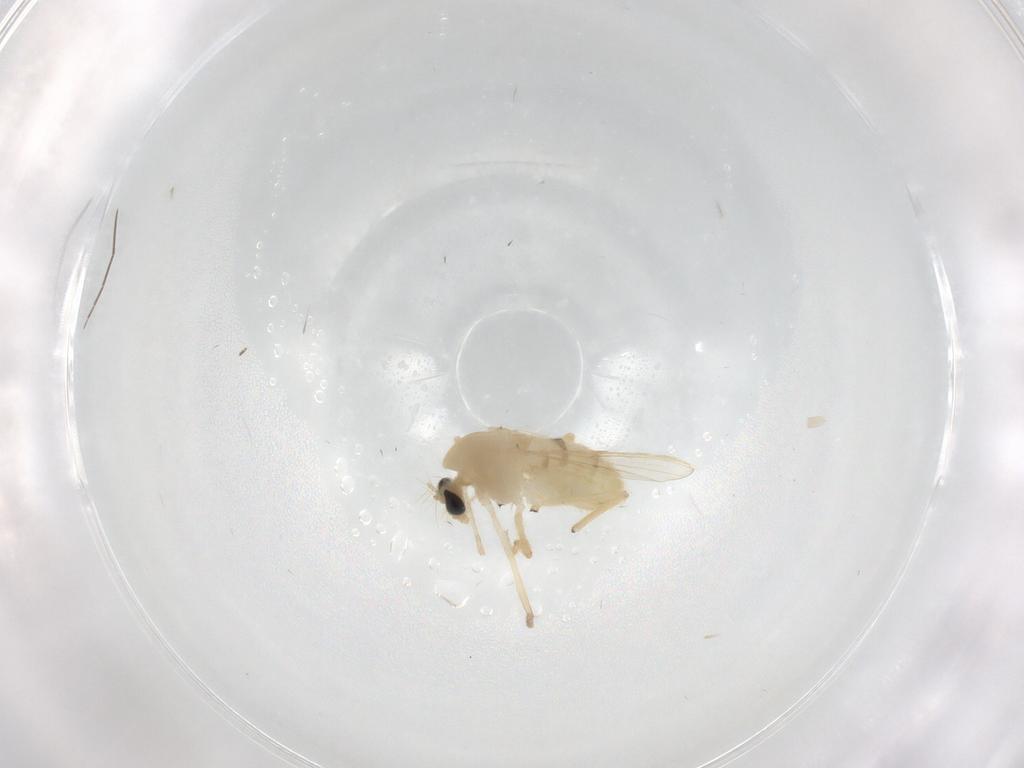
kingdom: Animalia
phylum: Arthropoda
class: Insecta
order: Diptera
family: Chironomidae
